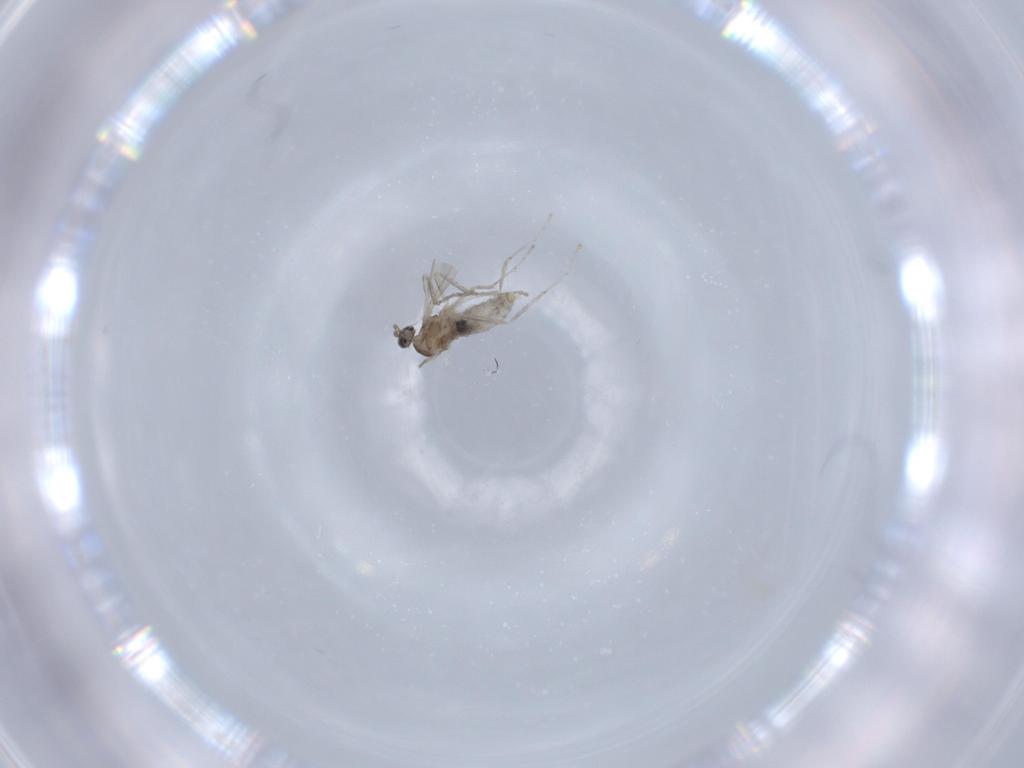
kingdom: Animalia
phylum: Arthropoda
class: Insecta
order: Diptera
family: Cecidomyiidae
